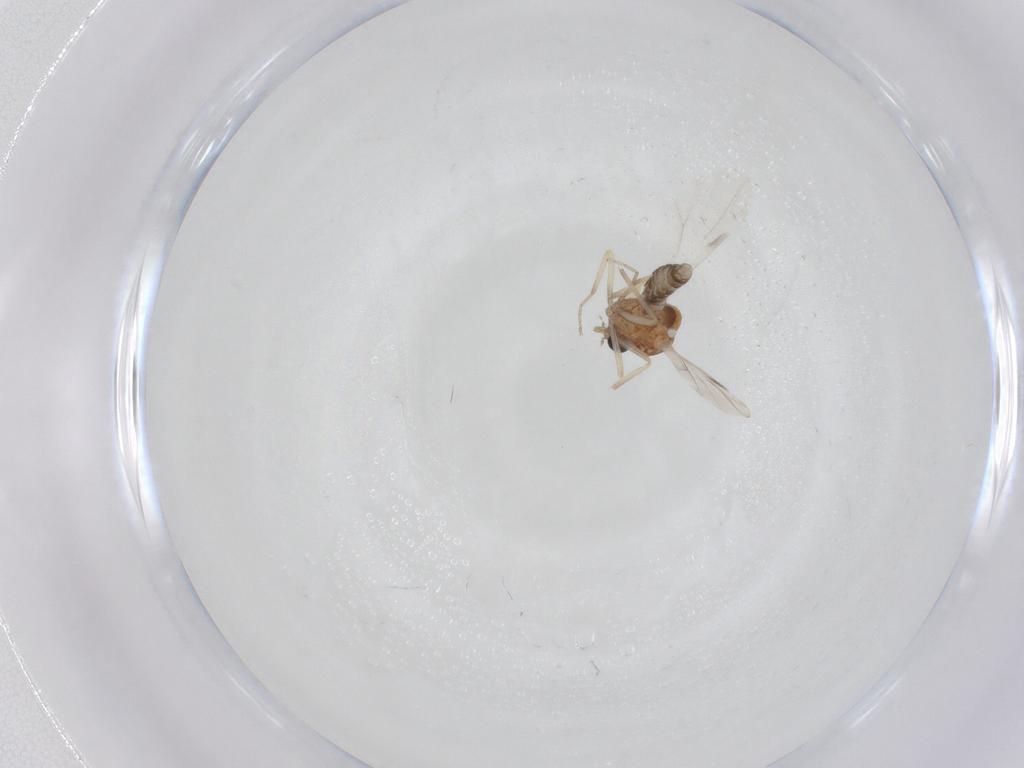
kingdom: Animalia
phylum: Arthropoda
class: Insecta
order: Diptera
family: Ceratopogonidae
